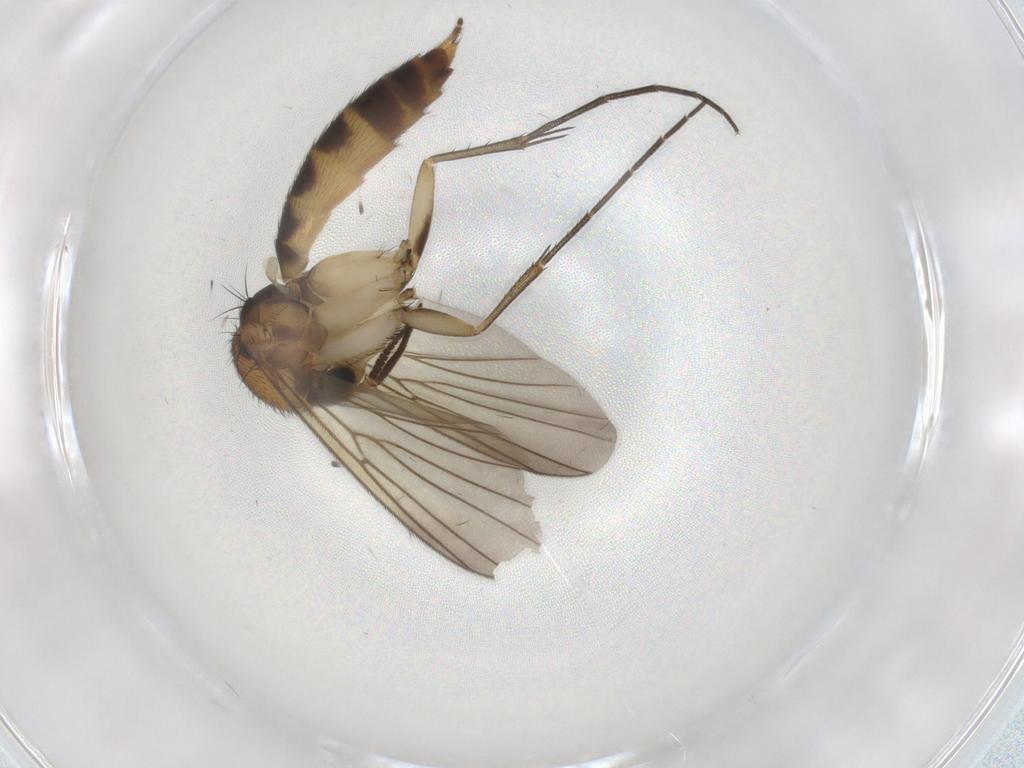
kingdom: Animalia
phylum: Arthropoda
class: Insecta
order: Diptera
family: Mycetophilidae
